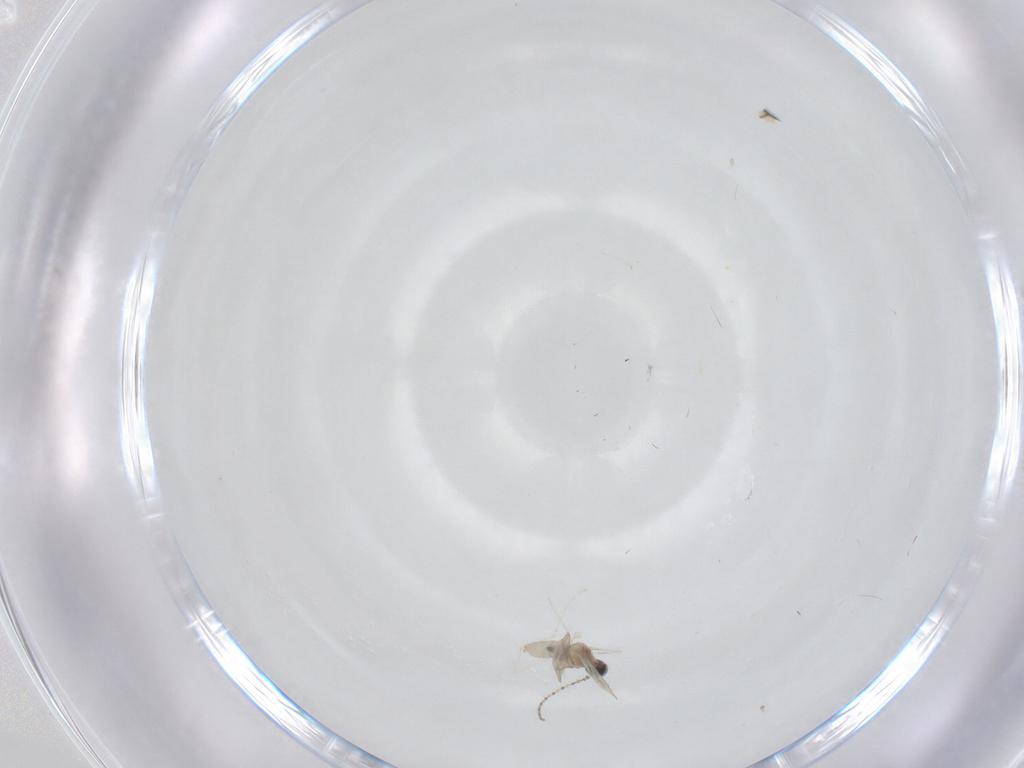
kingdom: Animalia
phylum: Arthropoda
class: Insecta
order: Diptera
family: Cecidomyiidae
